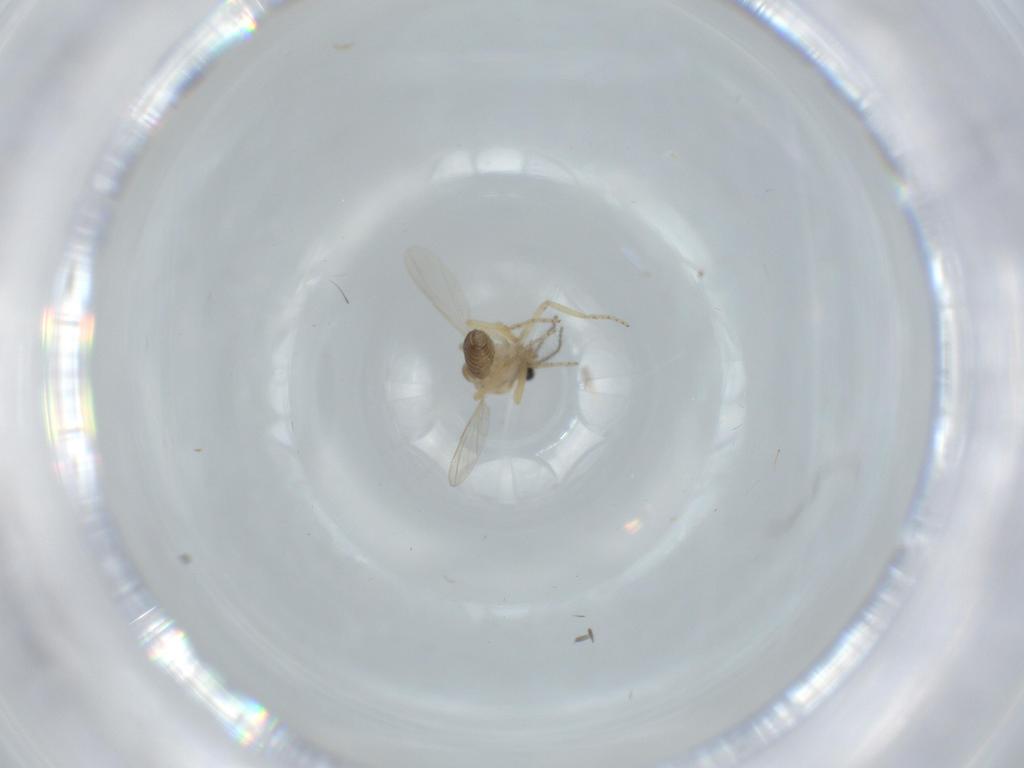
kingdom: Animalia
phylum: Arthropoda
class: Insecta
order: Diptera
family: Ceratopogonidae
